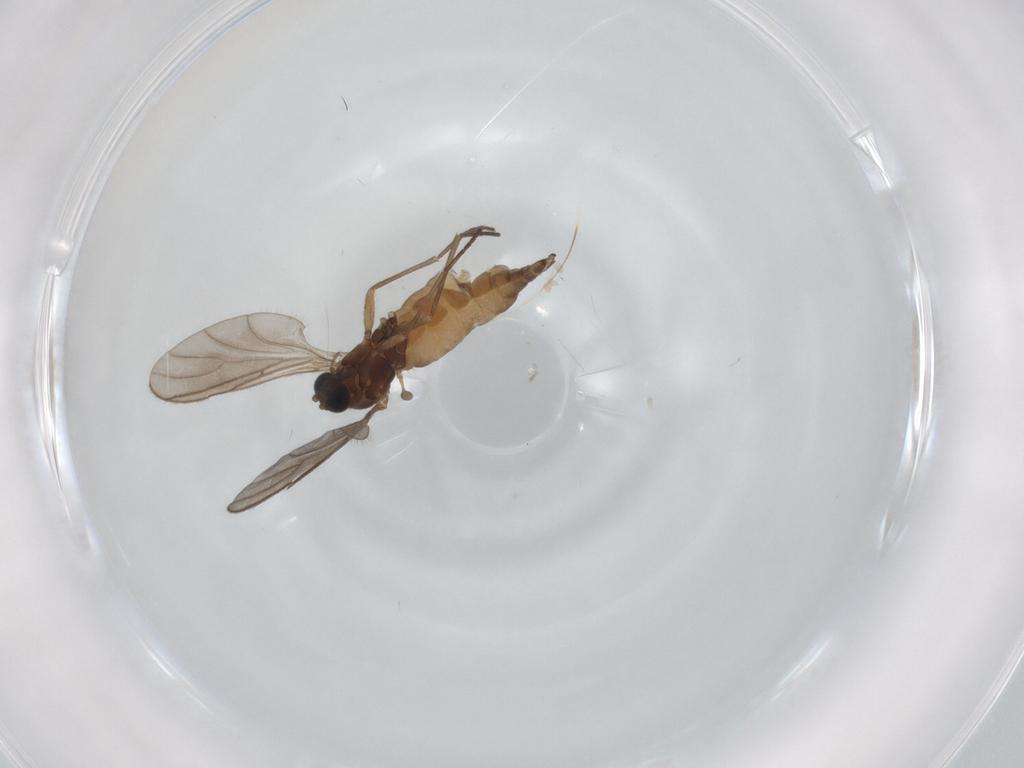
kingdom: Animalia
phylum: Arthropoda
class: Insecta
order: Diptera
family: Sciaridae
